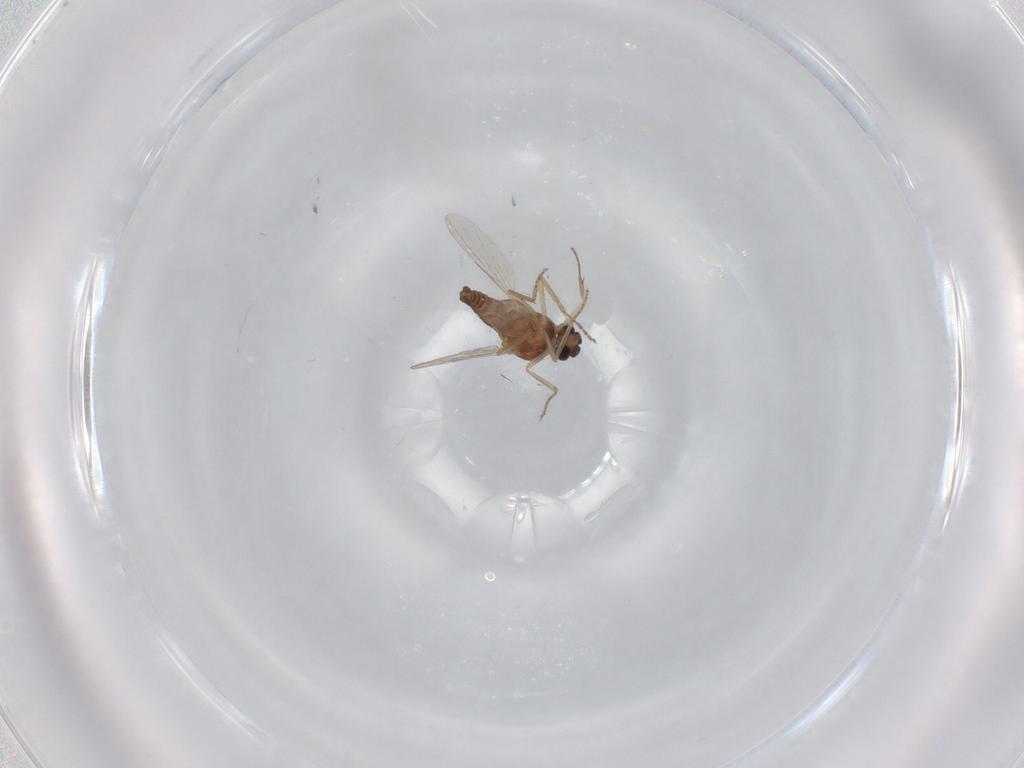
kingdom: Animalia
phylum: Arthropoda
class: Insecta
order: Diptera
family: Ceratopogonidae
